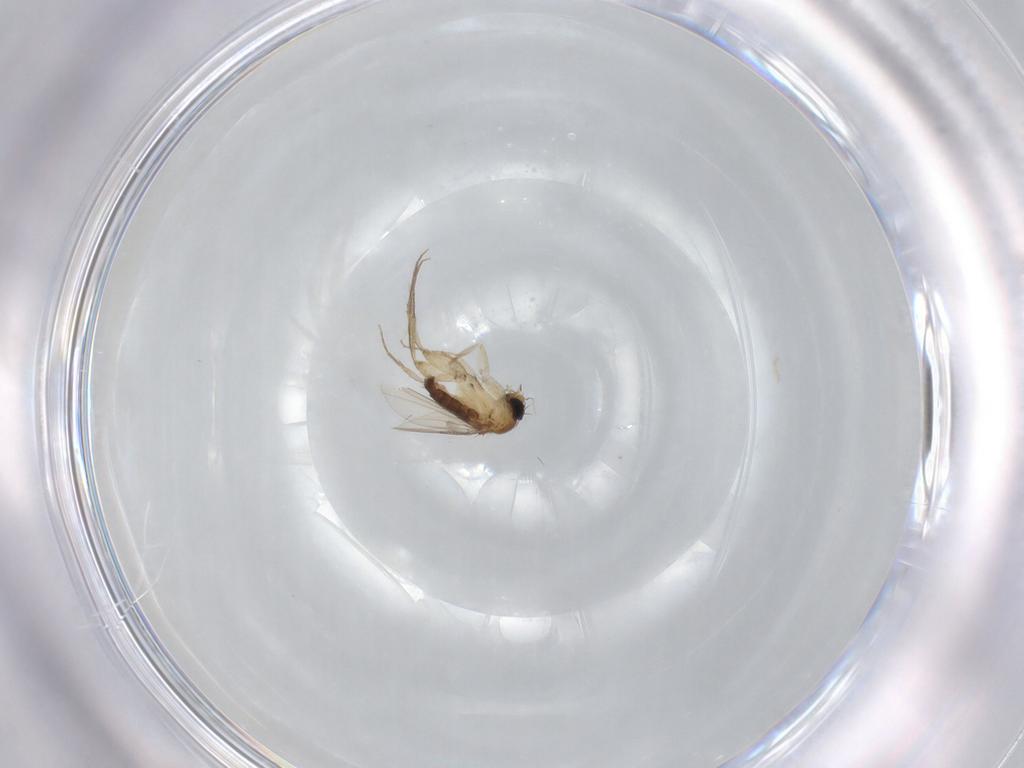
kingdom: Animalia
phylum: Arthropoda
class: Insecta
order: Diptera
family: Phoridae
